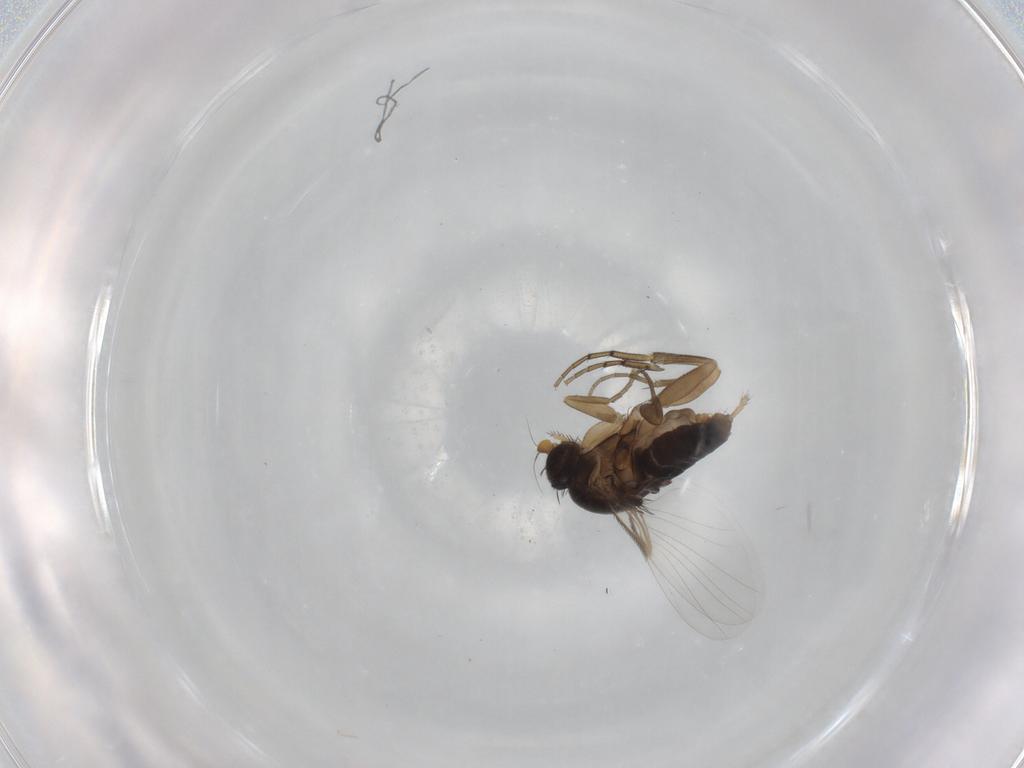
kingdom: Animalia
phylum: Arthropoda
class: Insecta
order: Diptera
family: Phoridae
